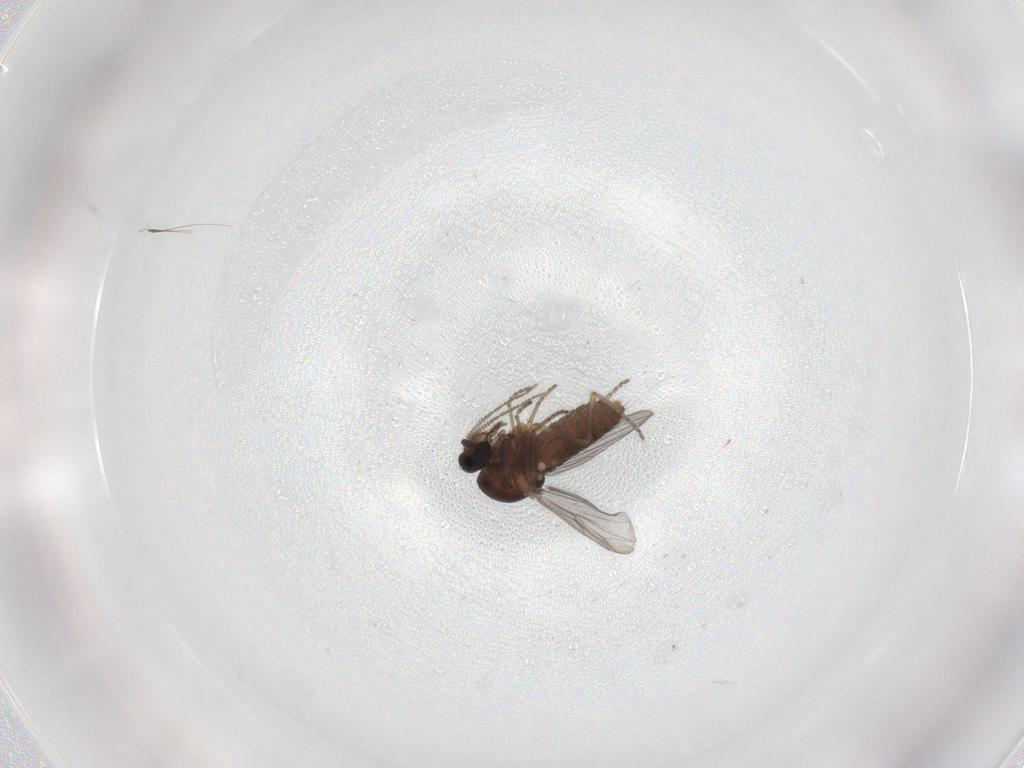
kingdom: Animalia
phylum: Arthropoda
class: Insecta
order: Diptera
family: Ceratopogonidae
